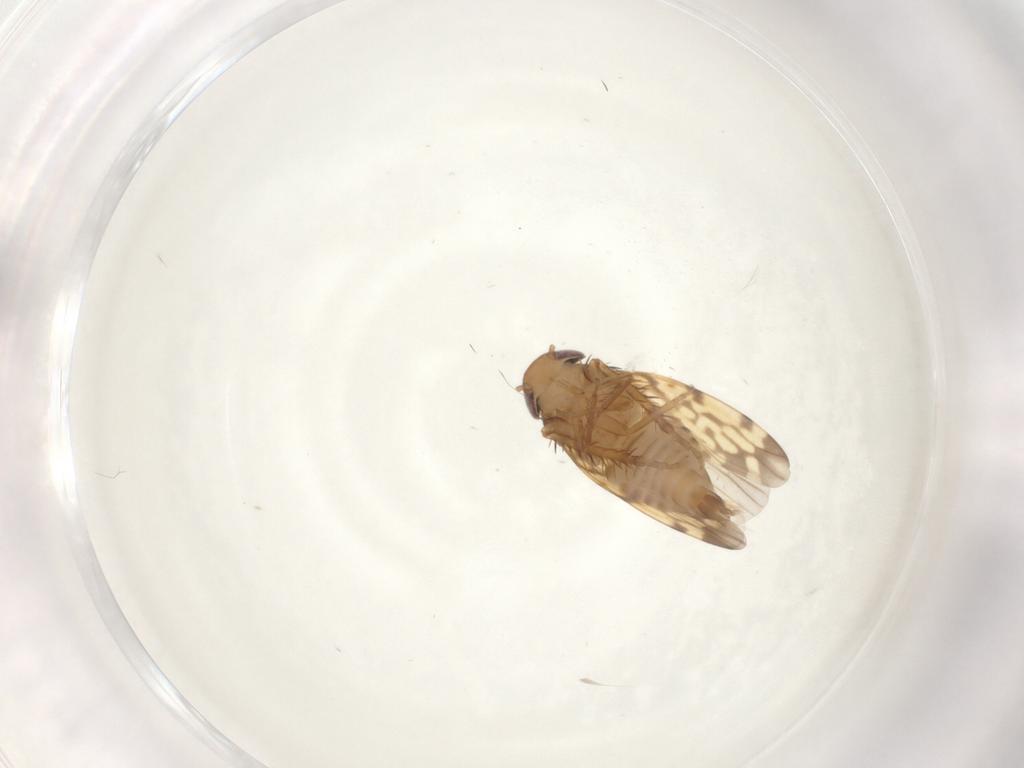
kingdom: Animalia
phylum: Arthropoda
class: Insecta
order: Hemiptera
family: Cicadellidae
